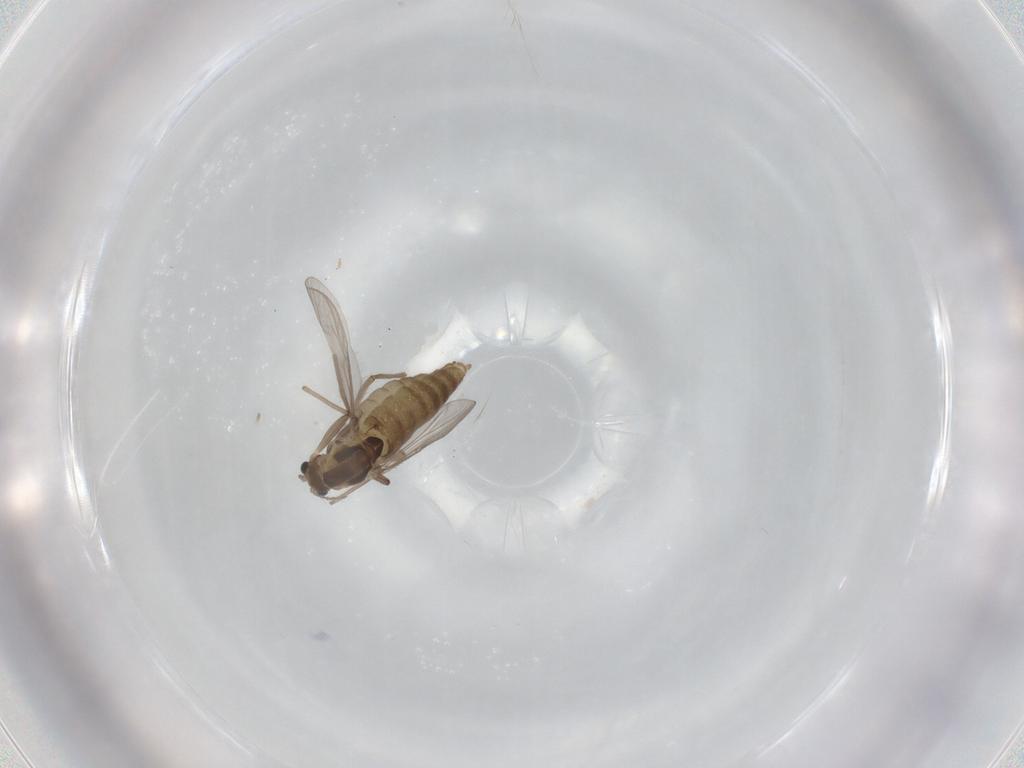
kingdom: Animalia
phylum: Arthropoda
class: Insecta
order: Diptera
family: Chironomidae
